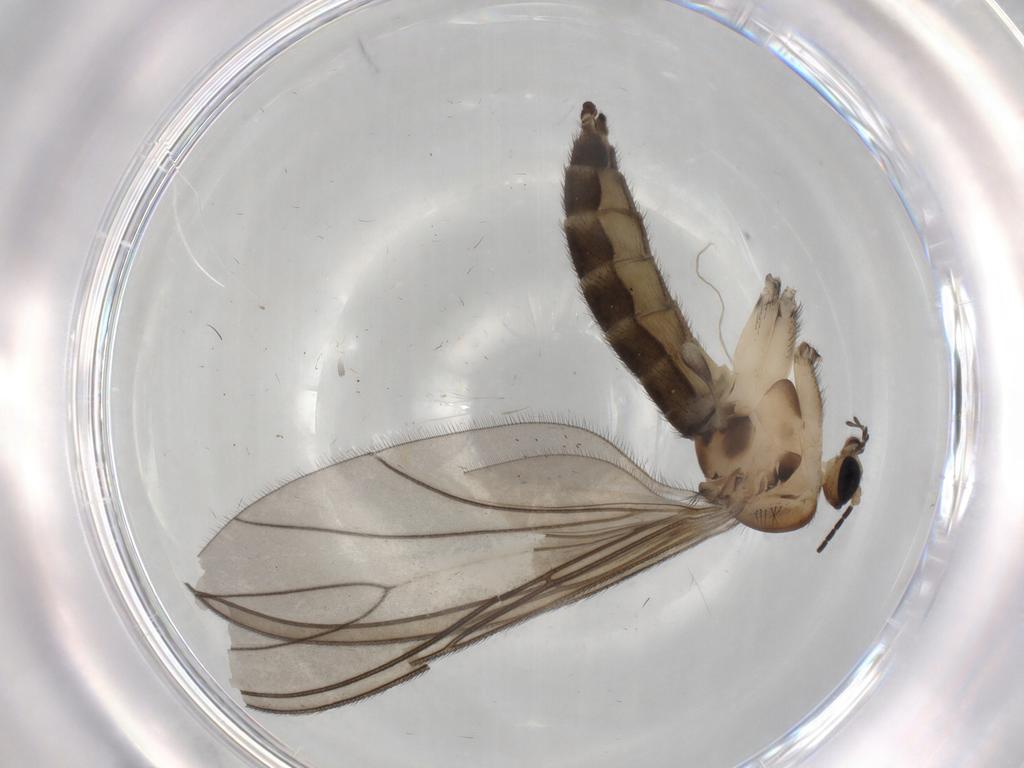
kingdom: Animalia
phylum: Arthropoda
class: Insecta
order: Diptera
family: Sciaridae
